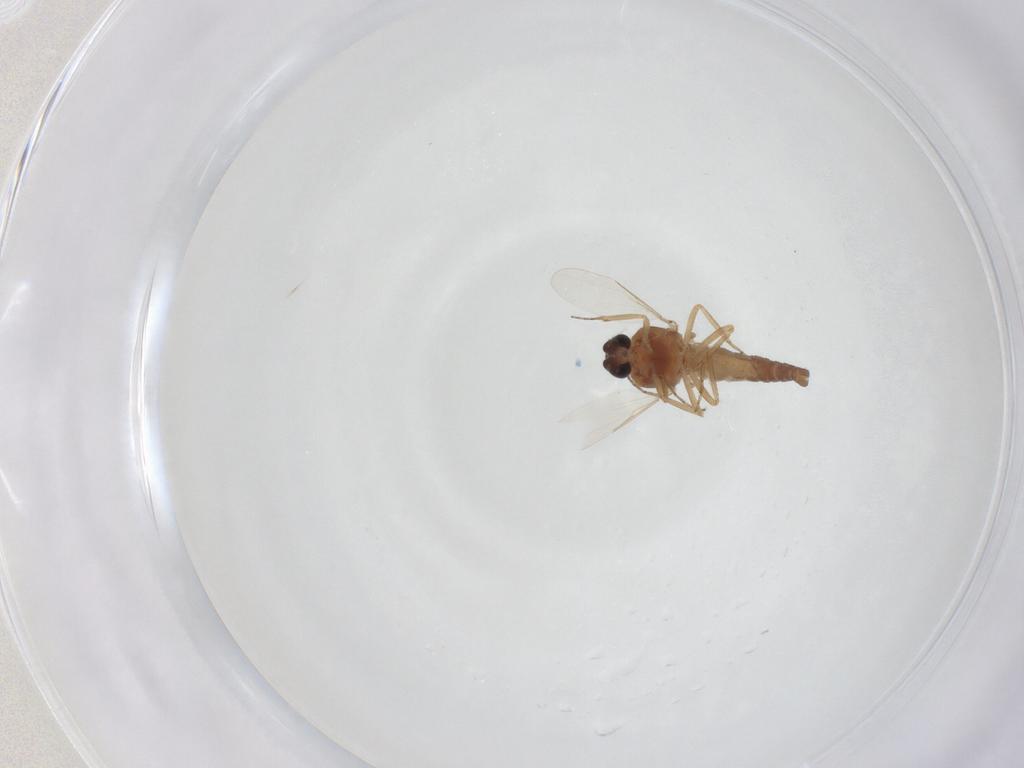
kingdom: Animalia
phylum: Arthropoda
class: Insecta
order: Diptera
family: Ceratopogonidae
